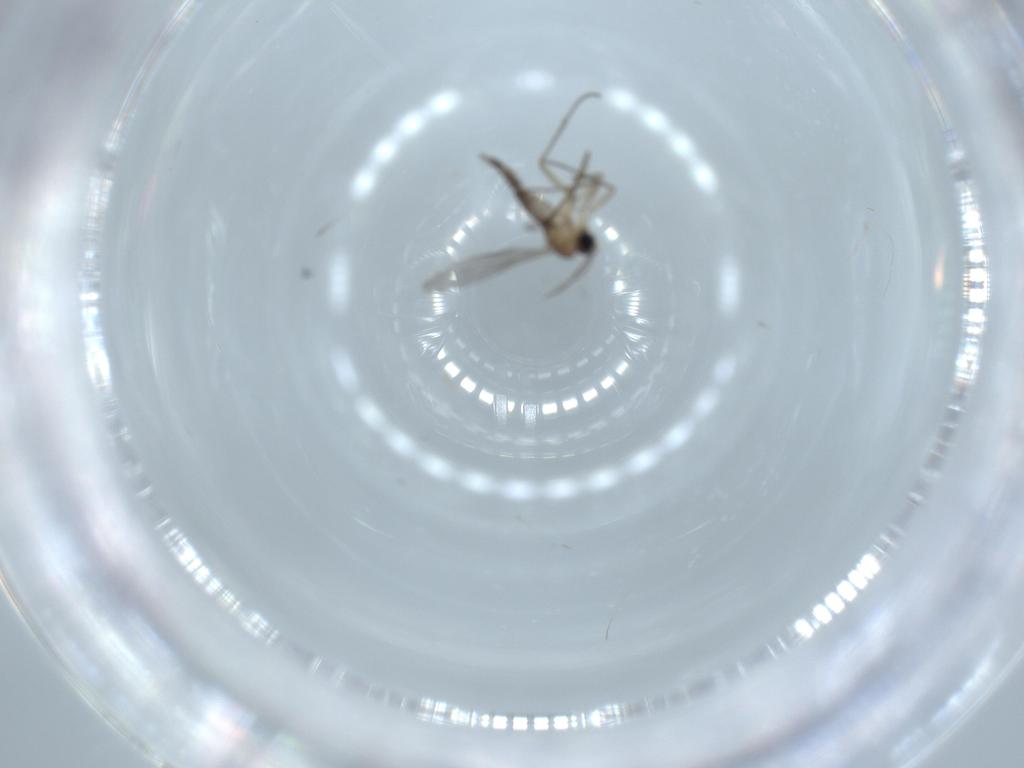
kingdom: Animalia
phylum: Arthropoda
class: Insecta
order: Diptera
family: Sciaridae
